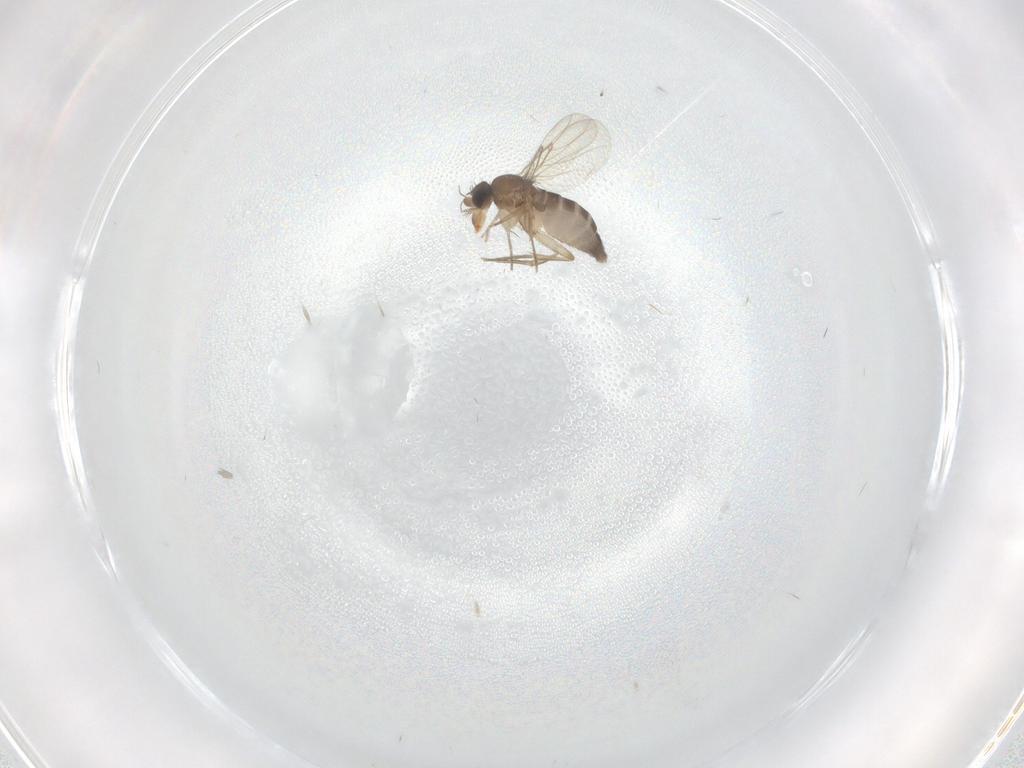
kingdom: Animalia
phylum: Arthropoda
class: Insecta
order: Diptera
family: Phoridae
